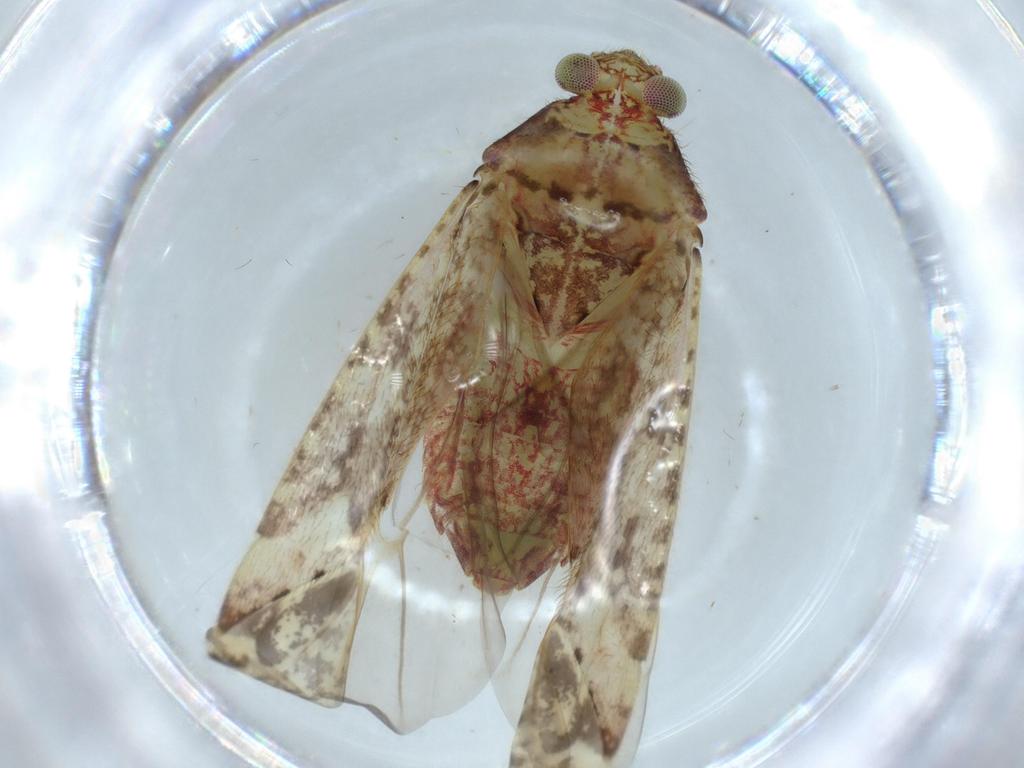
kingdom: Animalia
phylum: Arthropoda
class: Insecta
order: Hemiptera
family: Miridae
